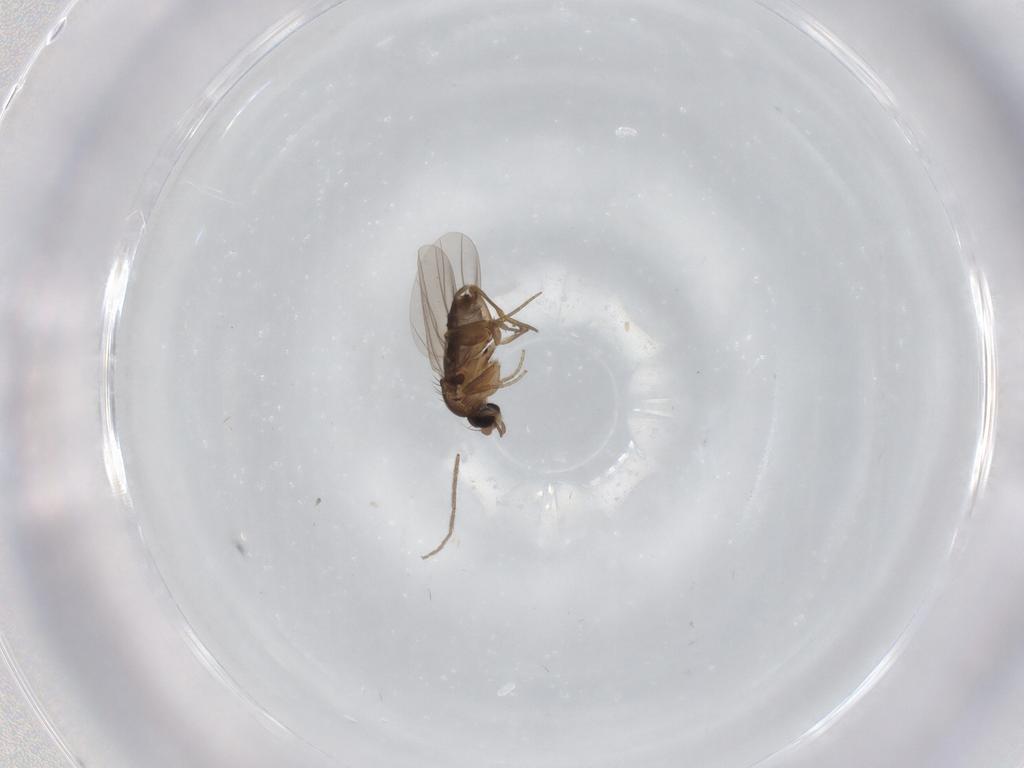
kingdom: Animalia
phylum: Arthropoda
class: Insecta
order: Diptera
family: Chironomidae
